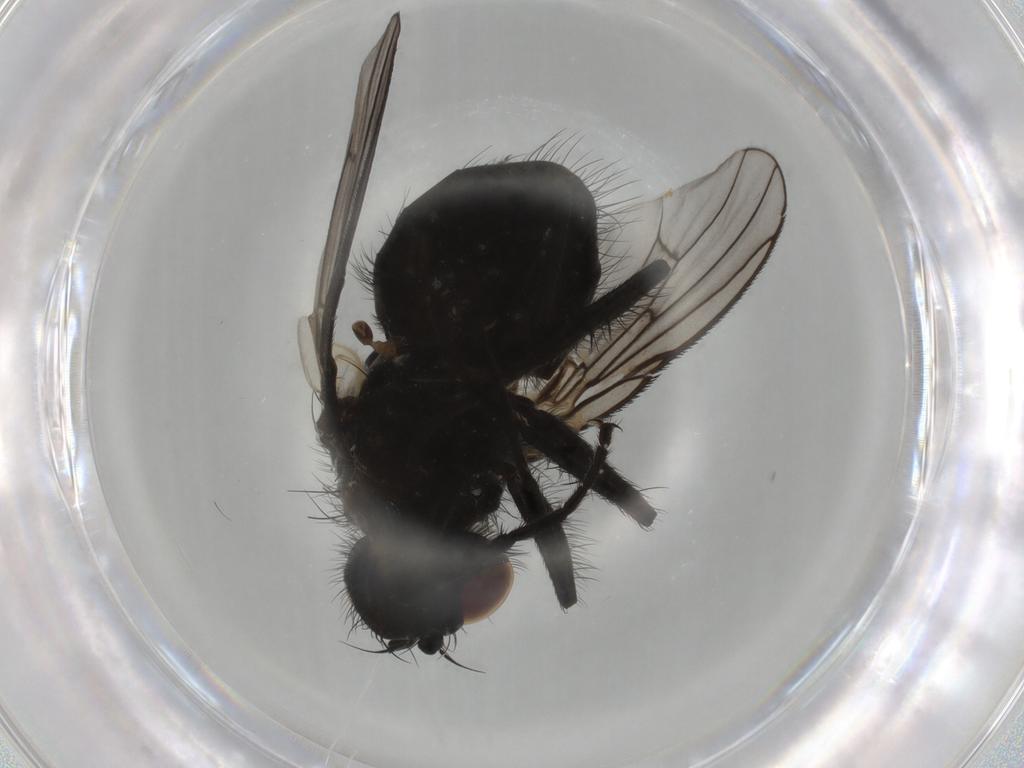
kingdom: Animalia
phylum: Arthropoda
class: Insecta
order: Diptera
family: Muscidae
